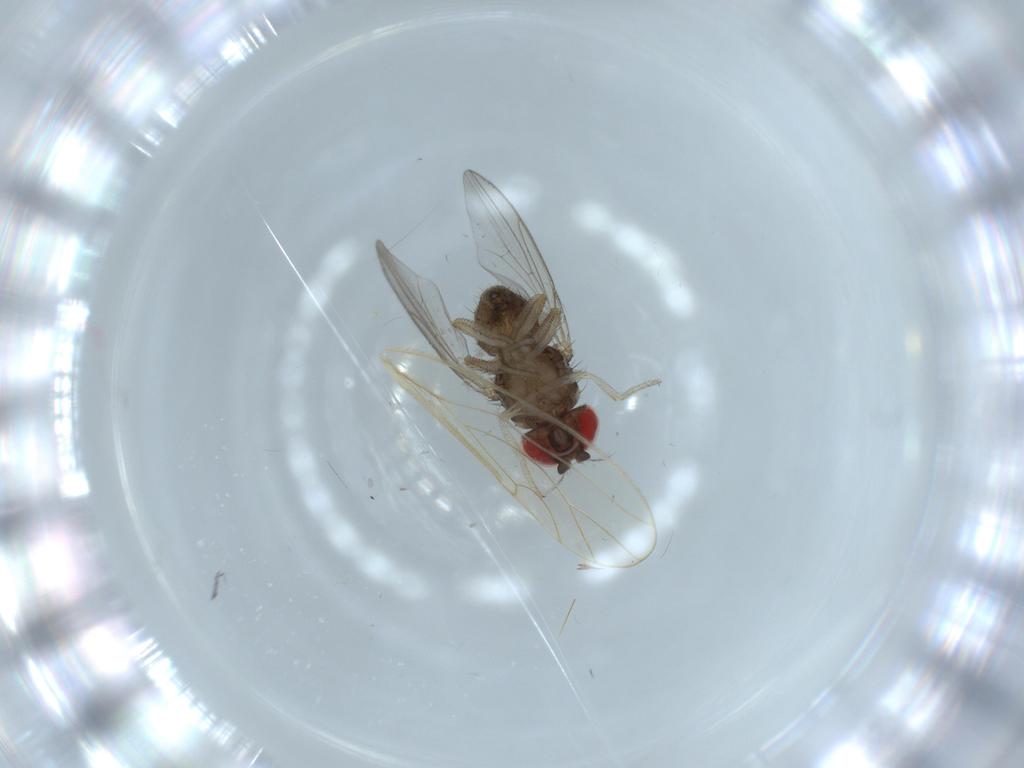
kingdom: Animalia
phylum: Arthropoda
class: Insecta
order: Diptera
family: Drosophilidae
